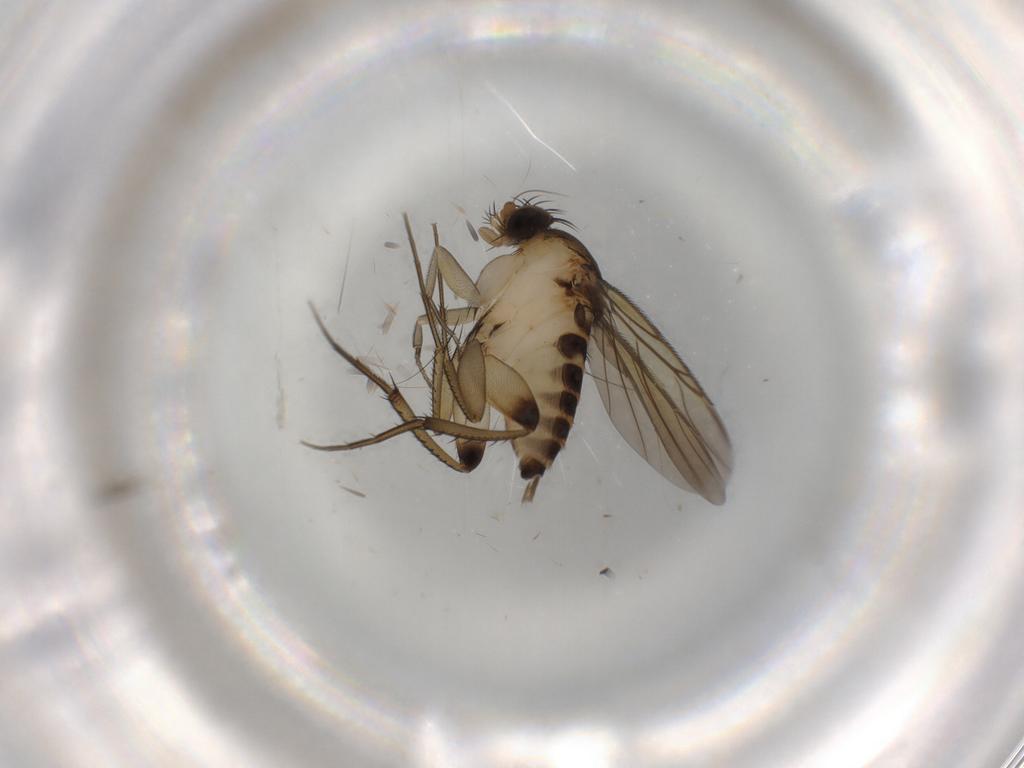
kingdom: Animalia
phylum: Arthropoda
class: Insecta
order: Diptera
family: Phoridae
